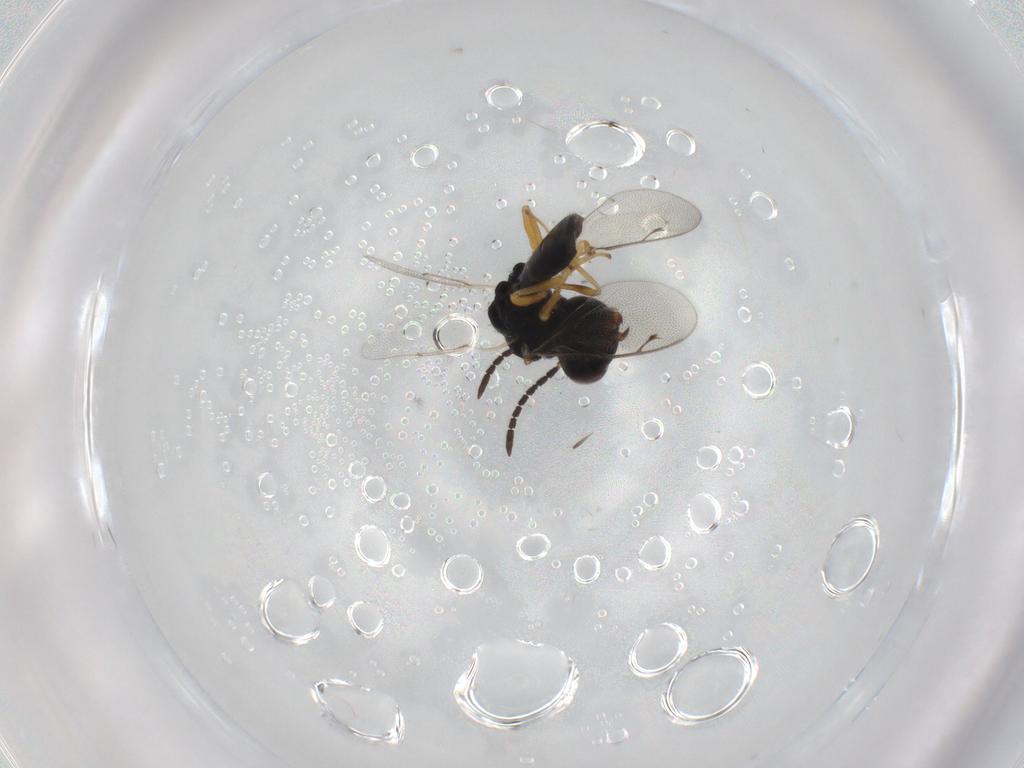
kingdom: Animalia
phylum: Arthropoda
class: Insecta
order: Hymenoptera
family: Pteromalidae
